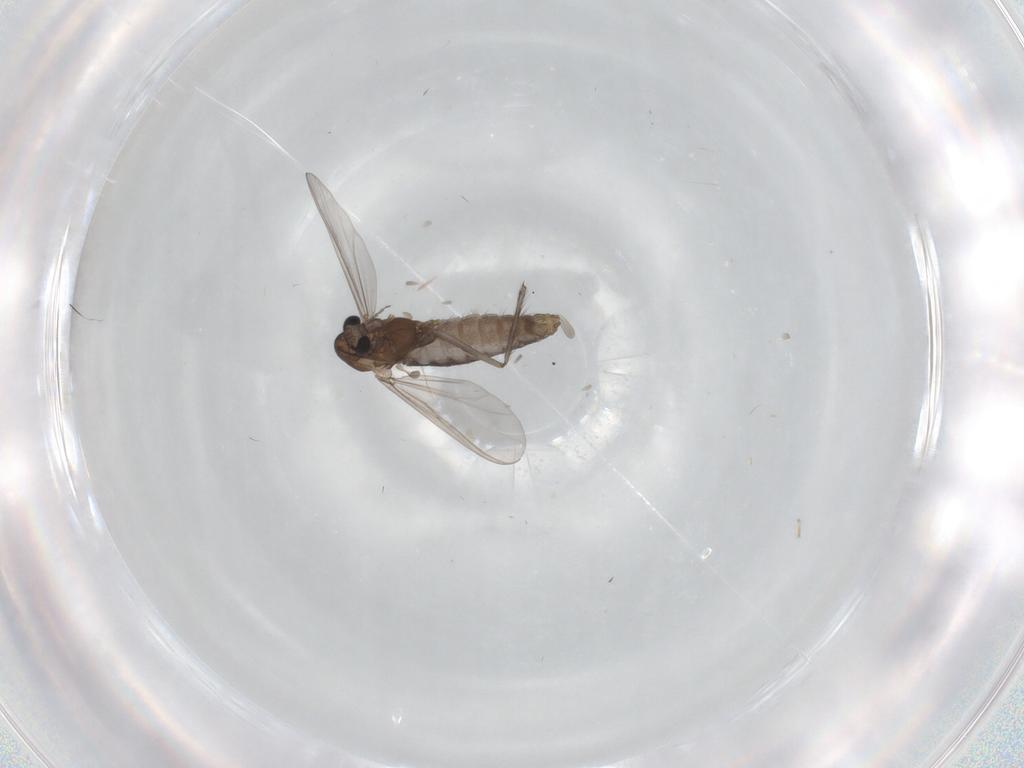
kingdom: Animalia
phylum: Arthropoda
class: Insecta
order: Diptera
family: Chironomidae
